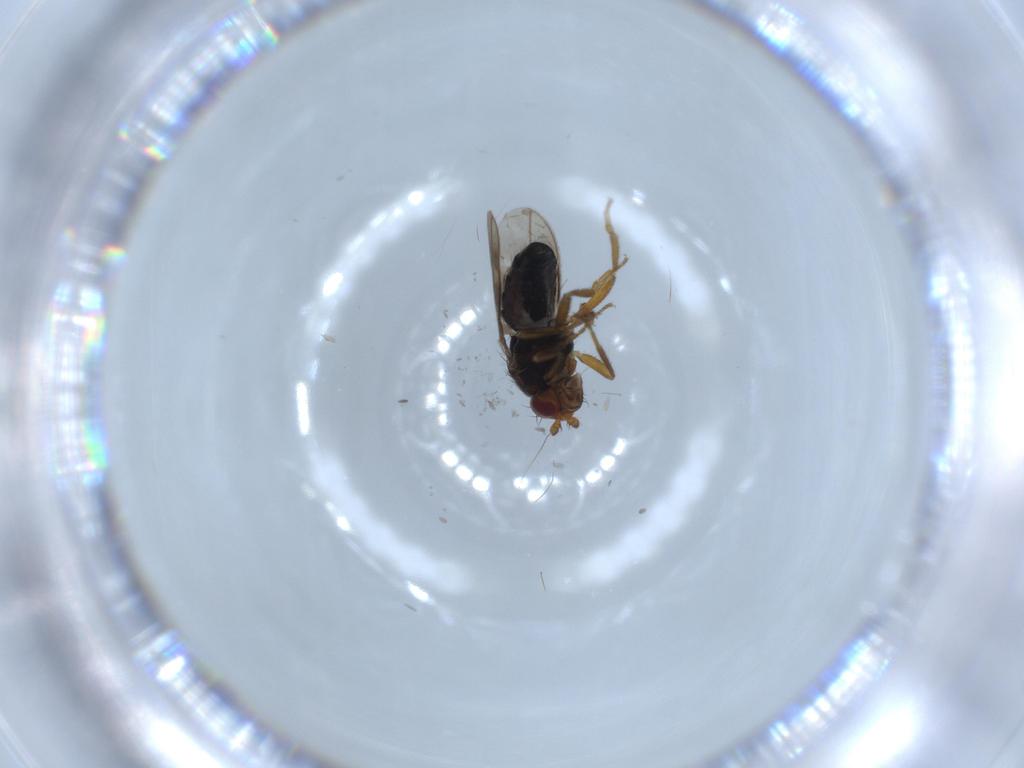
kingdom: Animalia
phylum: Arthropoda
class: Insecta
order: Diptera
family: Sphaeroceridae
